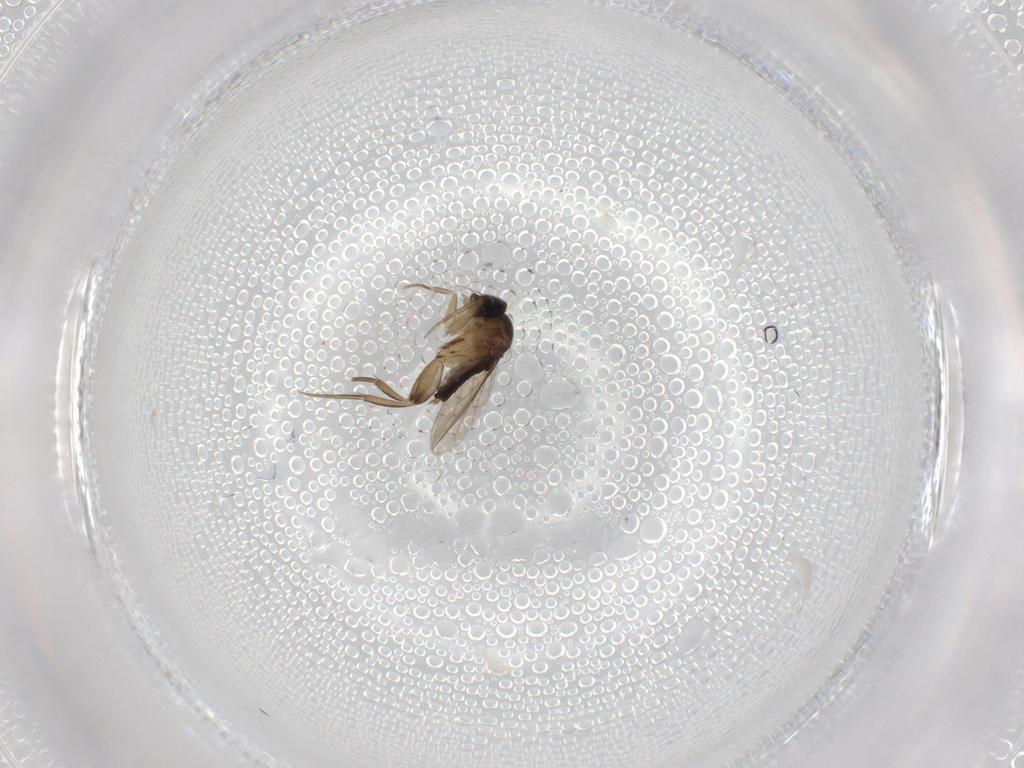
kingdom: Animalia
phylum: Arthropoda
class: Insecta
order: Diptera
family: Phoridae
